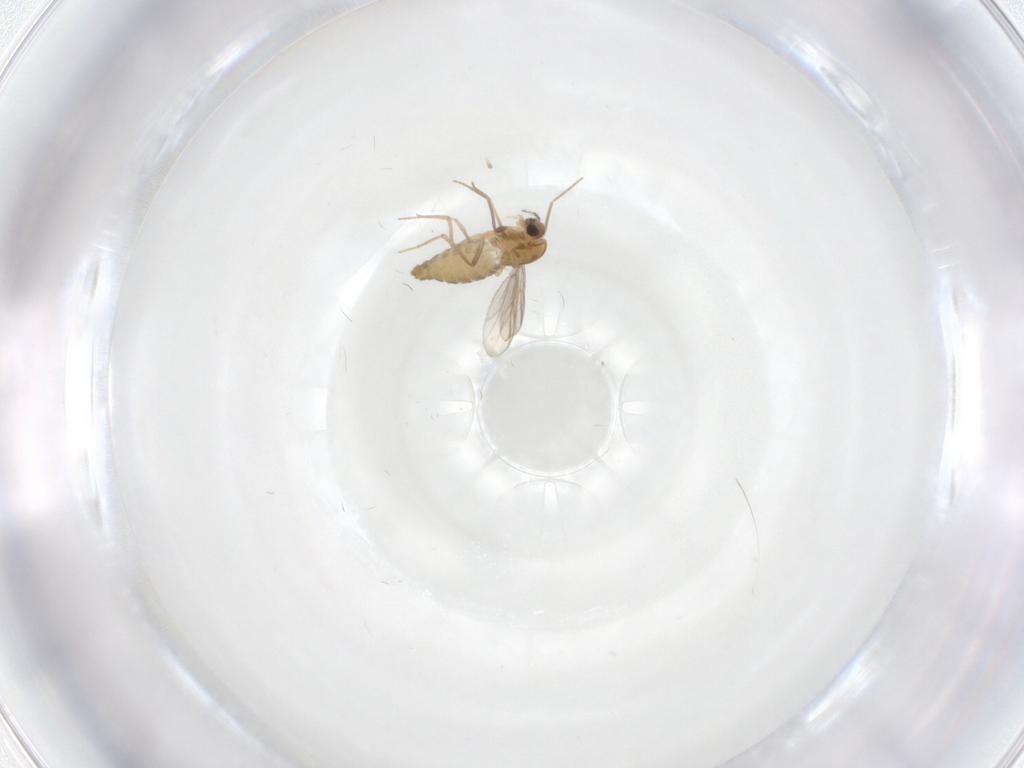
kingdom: Animalia
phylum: Arthropoda
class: Insecta
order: Diptera
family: Chironomidae
